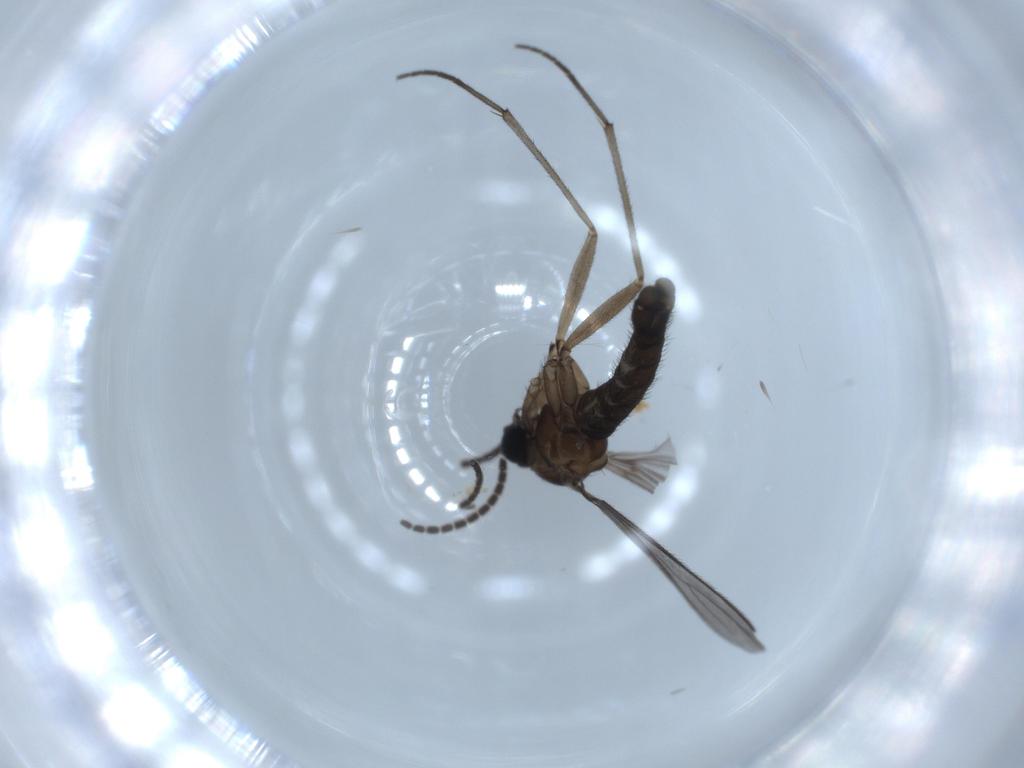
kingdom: Animalia
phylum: Arthropoda
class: Insecta
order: Diptera
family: Sciaridae
